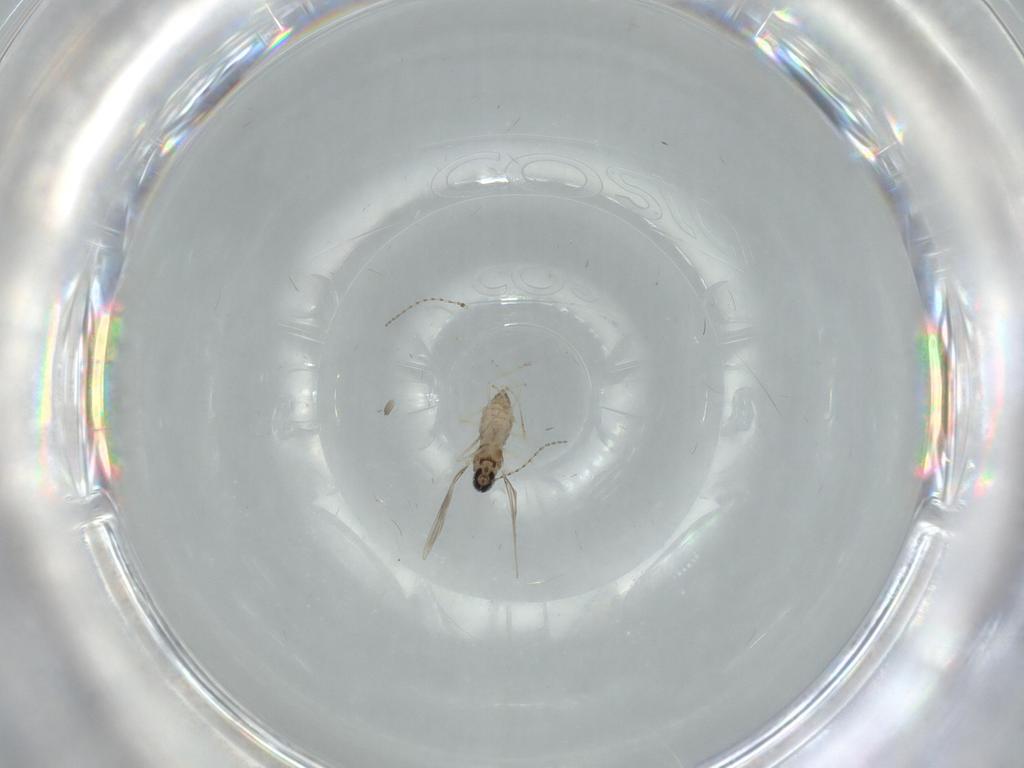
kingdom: Animalia
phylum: Arthropoda
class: Insecta
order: Diptera
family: Cecidomyiidae
